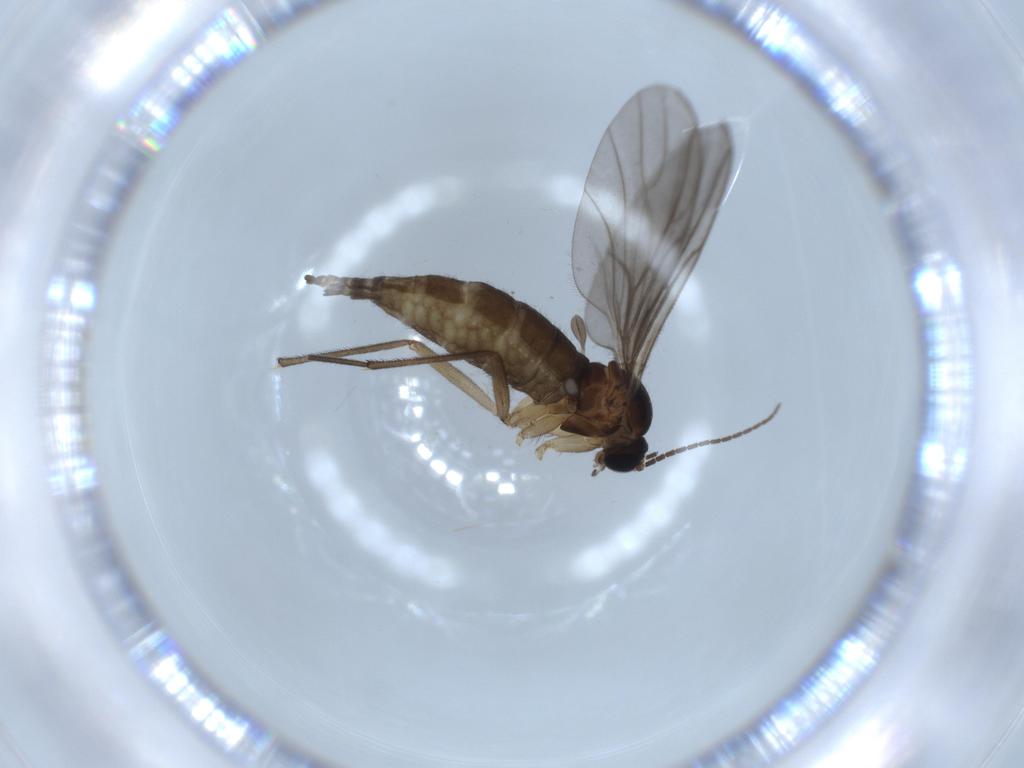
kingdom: Animalia
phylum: Arthropoda
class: Insecta
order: Diptera
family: Sciaridae
